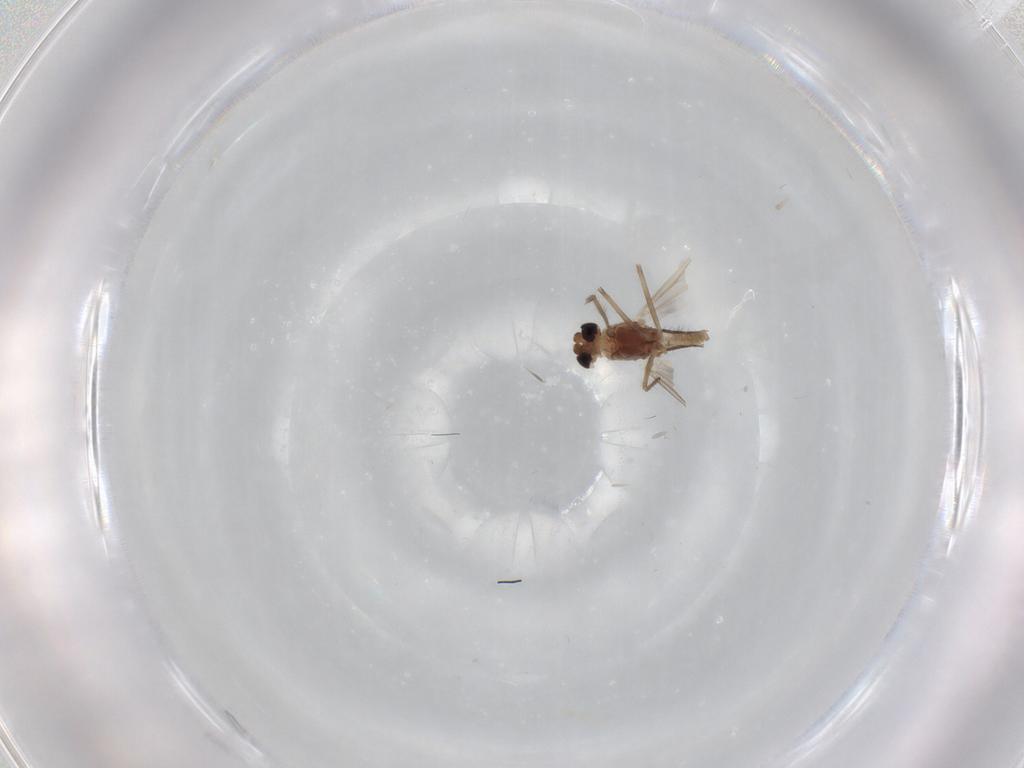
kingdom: Animalia
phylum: Arthropoda
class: Insecta
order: Diptera
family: Chironomidae
